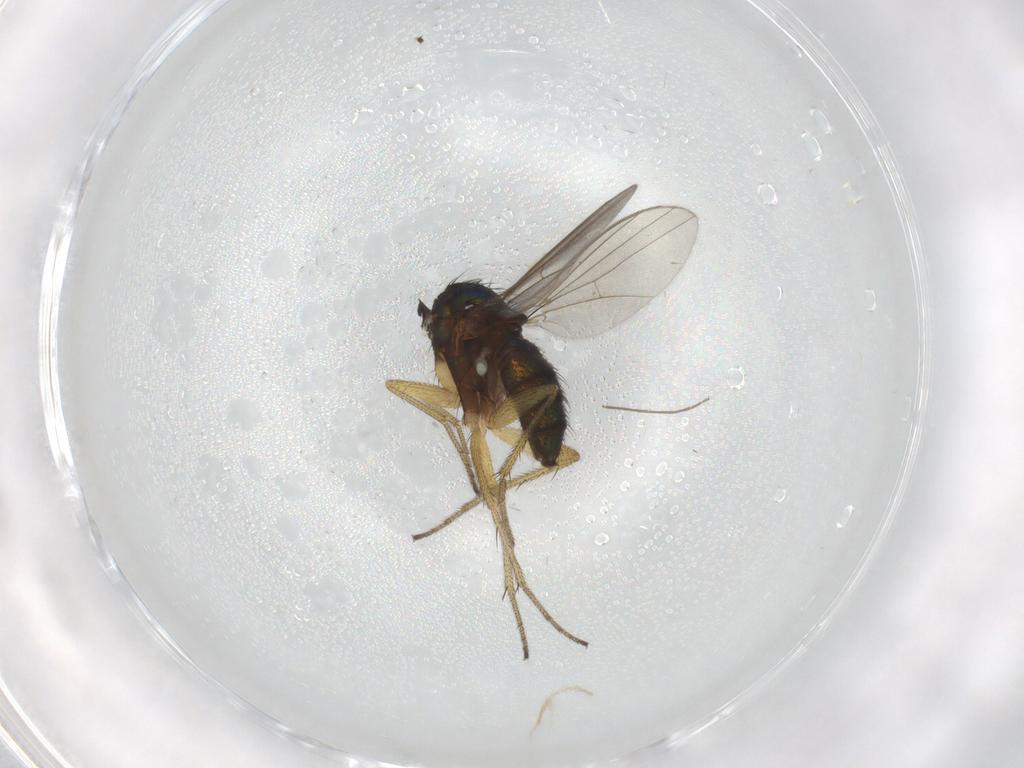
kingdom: Animalia
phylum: Arthropoda
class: Insecta
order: Diptera
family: Dolichopodidae
